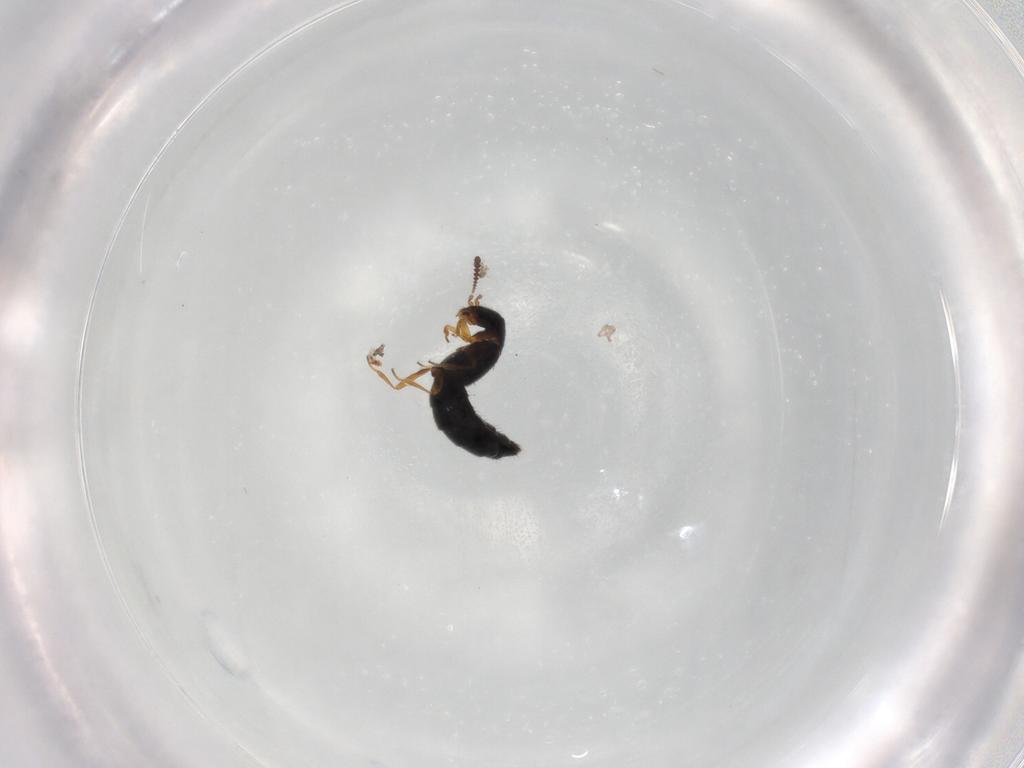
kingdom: Animalia
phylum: Arthropoda
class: Insecta
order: Coleoptera
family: Staphylinidae
